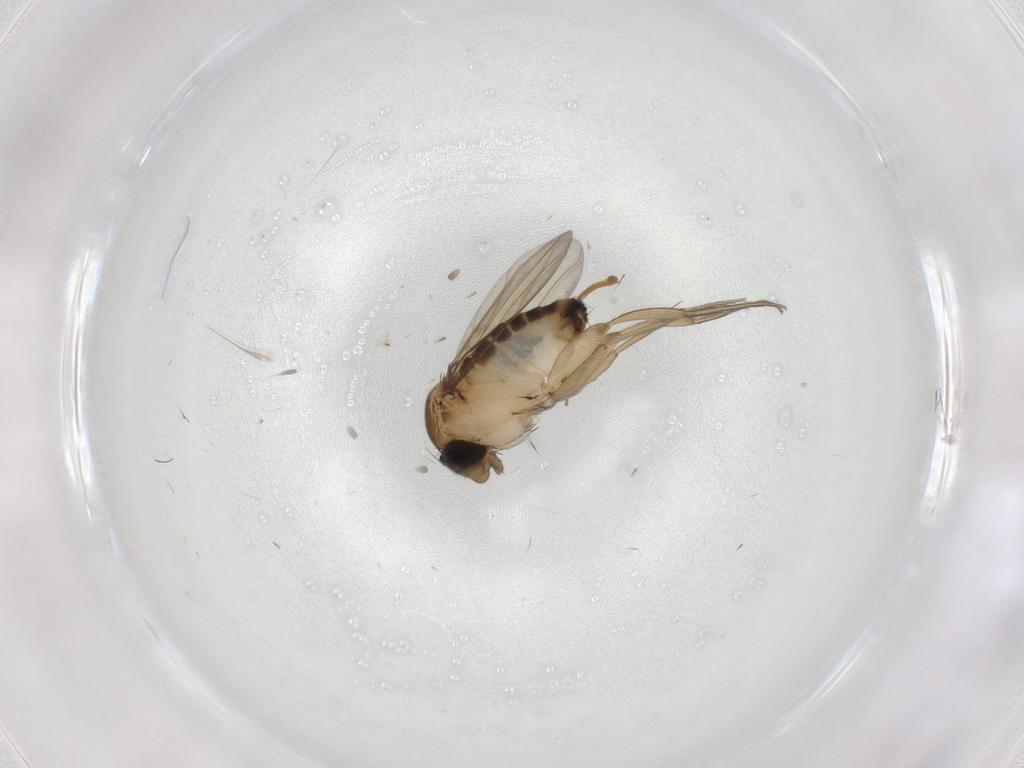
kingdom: Animalia
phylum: Arthropoda
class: Insecta
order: Diptera
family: Phoridae
